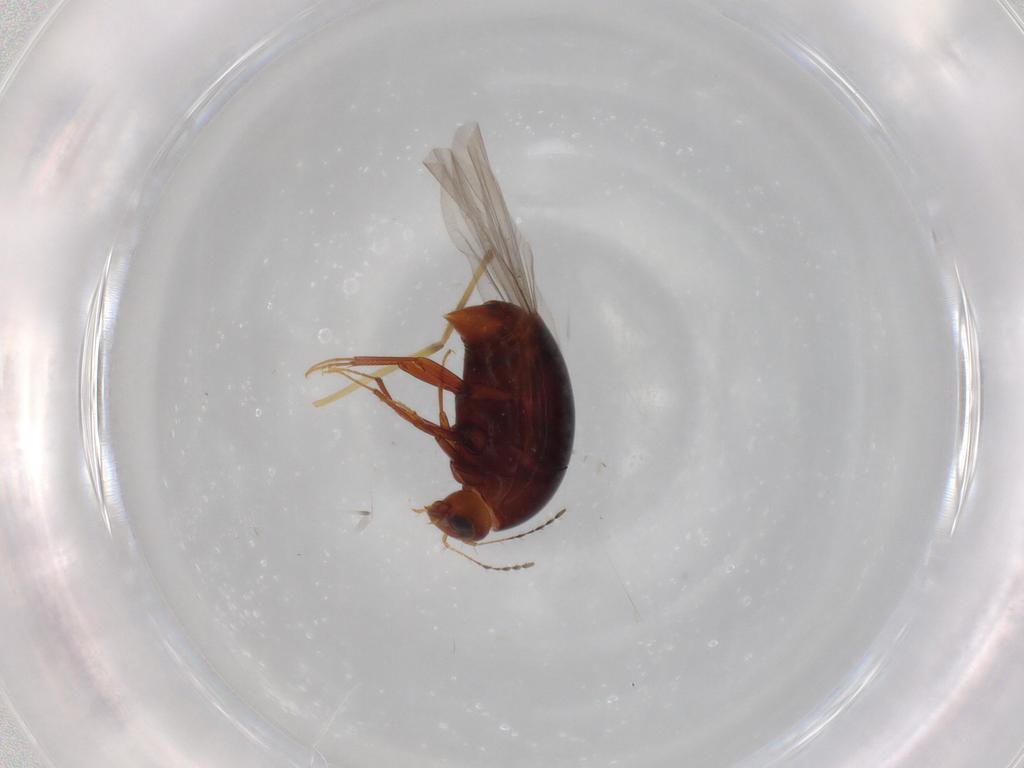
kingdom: Animalia
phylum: Arthropoda
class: Insecta
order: Coleoptera
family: Staphylinidae
